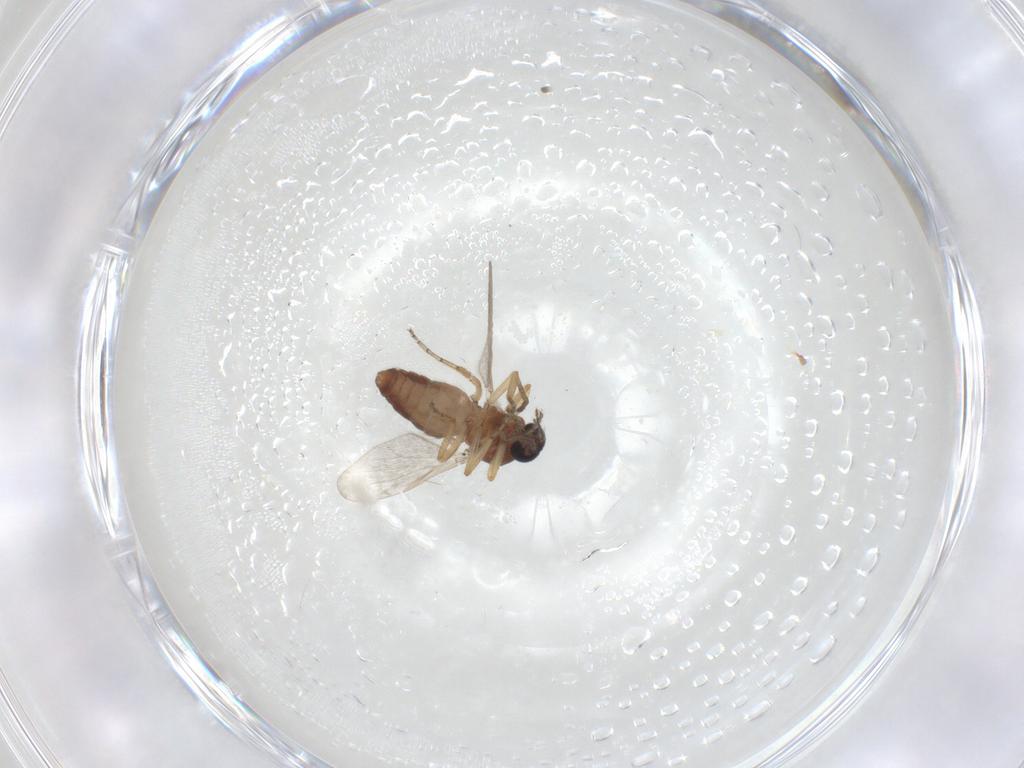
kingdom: Animalia
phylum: Arthropoda
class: Insecta
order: Diptera
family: Ceratopogonidae
